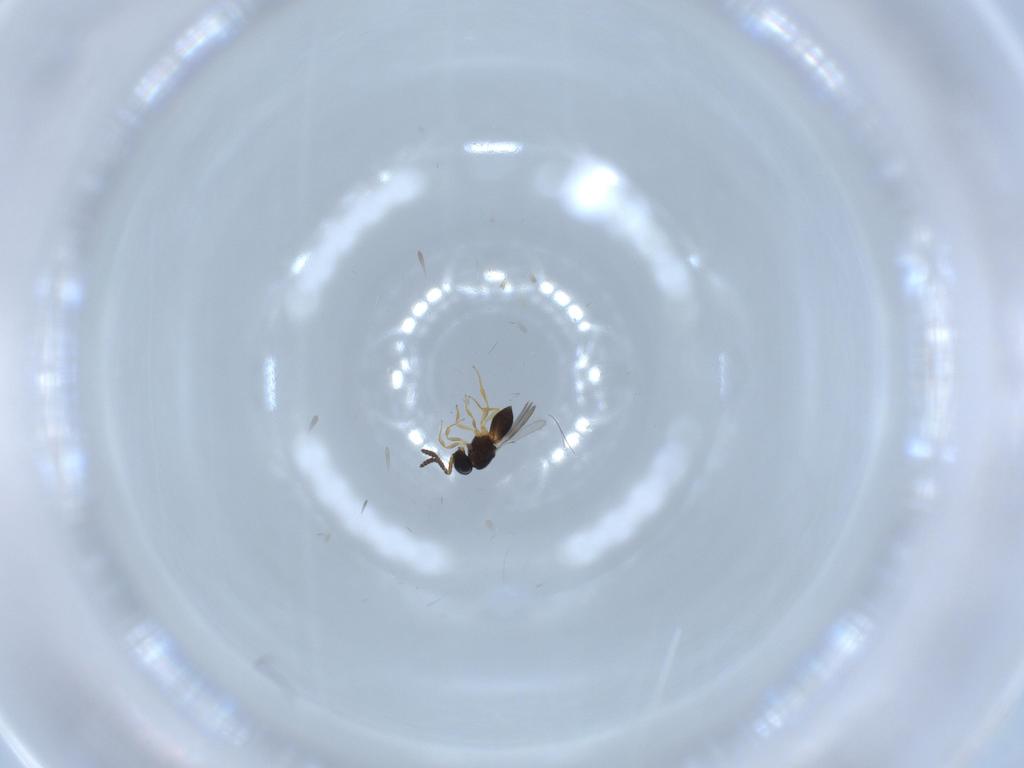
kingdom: Animalia
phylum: Arthropoda
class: Insecta
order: Hymenoptera
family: Scelionidae
